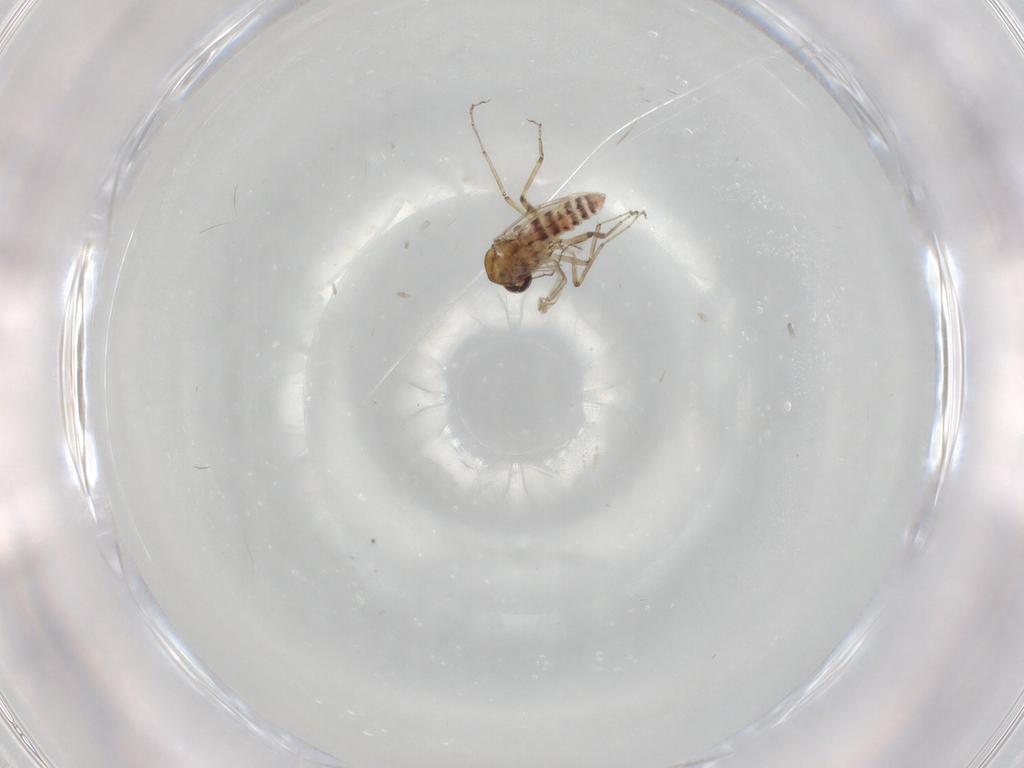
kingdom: Animalia
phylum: Arthropoda
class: Insecta
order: Diptera
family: Ceratopogonidae
